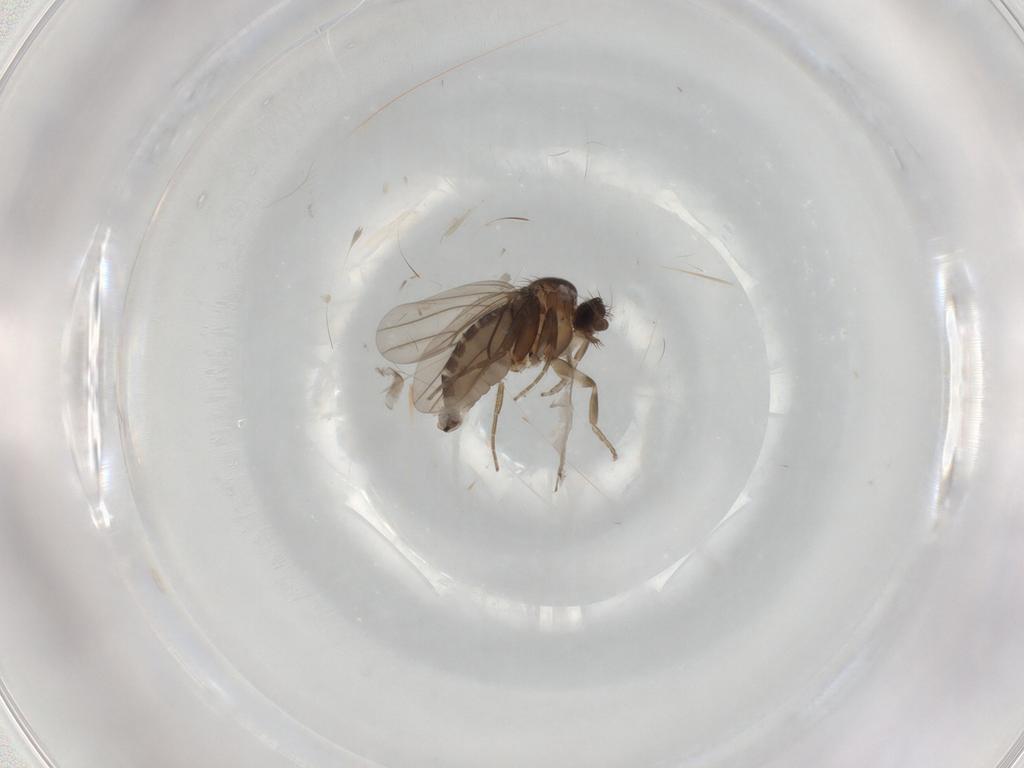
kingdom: Animalia
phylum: Arthropoda
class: Insecta
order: Diptera
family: Phoridae
